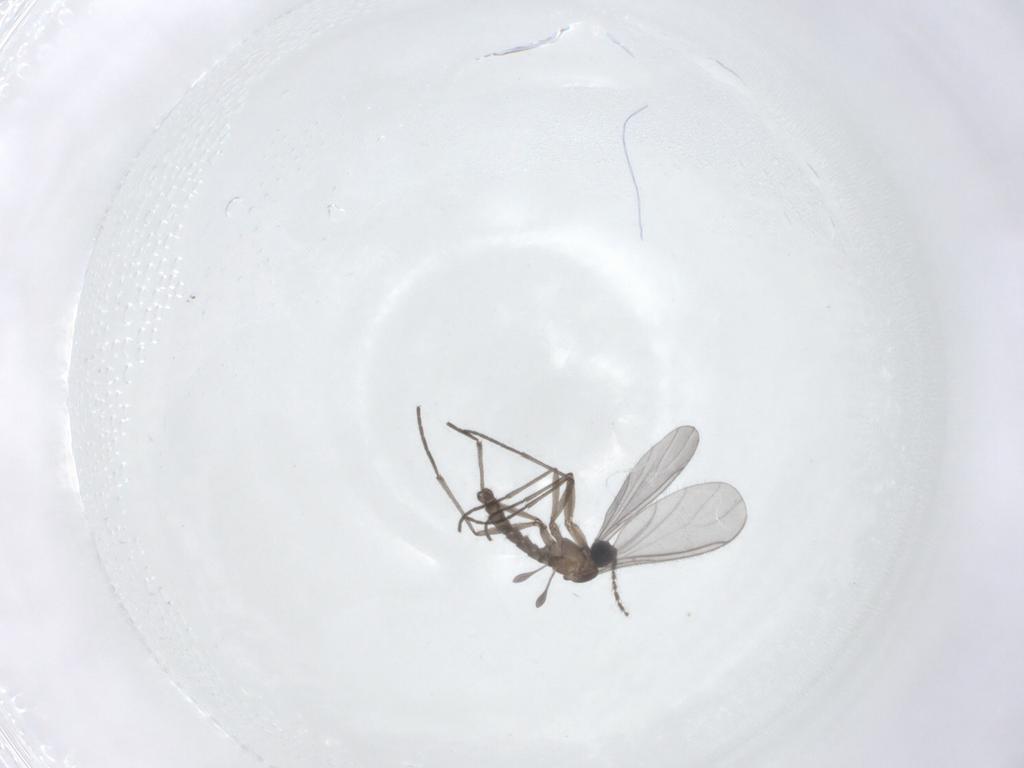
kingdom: Animalia
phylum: Arthropoda
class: Insecta
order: Diptera
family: Sciaridae
